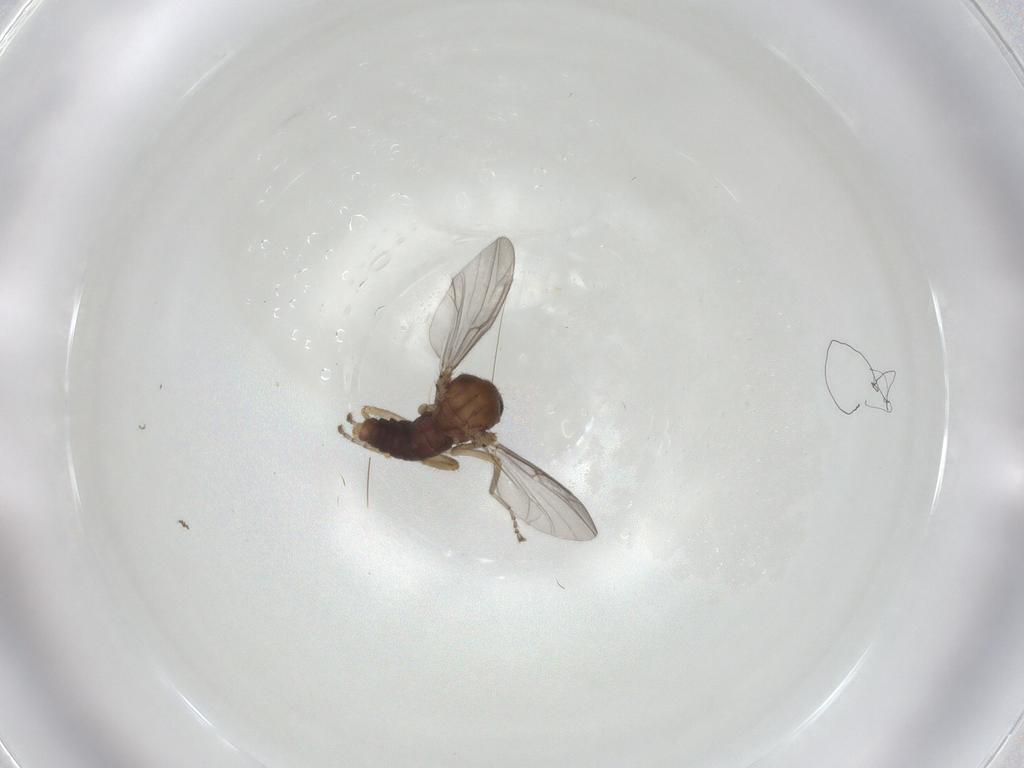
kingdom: Animalia
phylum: Arthropoda
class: Insecta
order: Diptera
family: Ceratopogonidae
